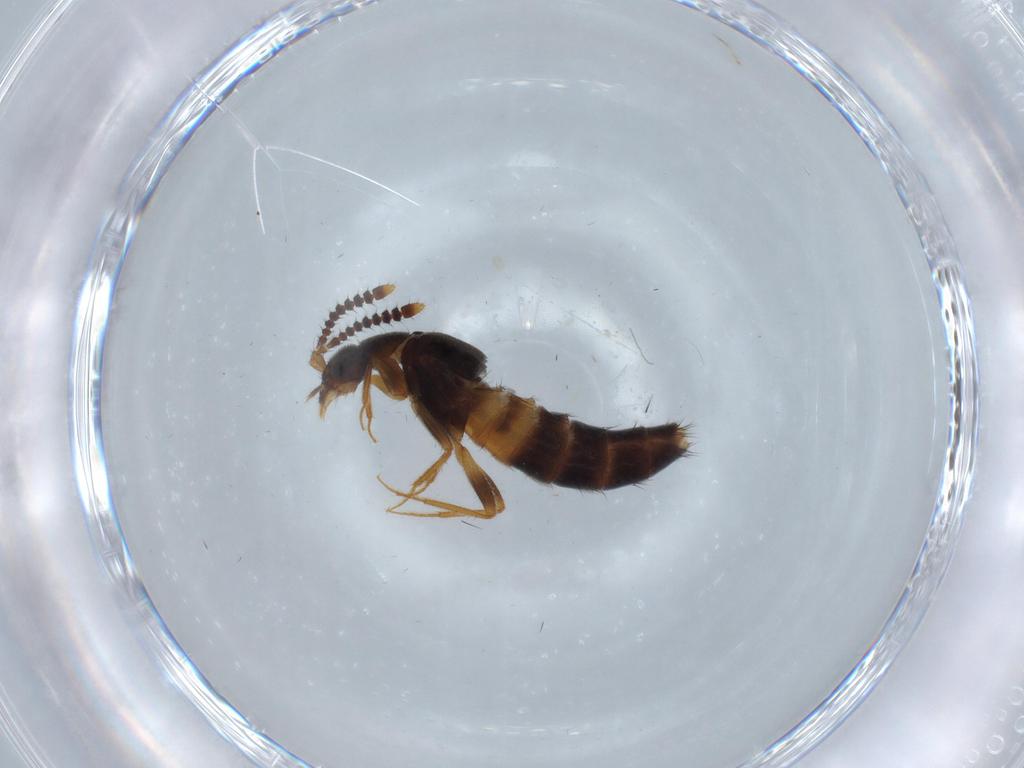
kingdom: Animalia
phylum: Arthropoda
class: Insecta
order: Coleoptera
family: Staphylinidae
